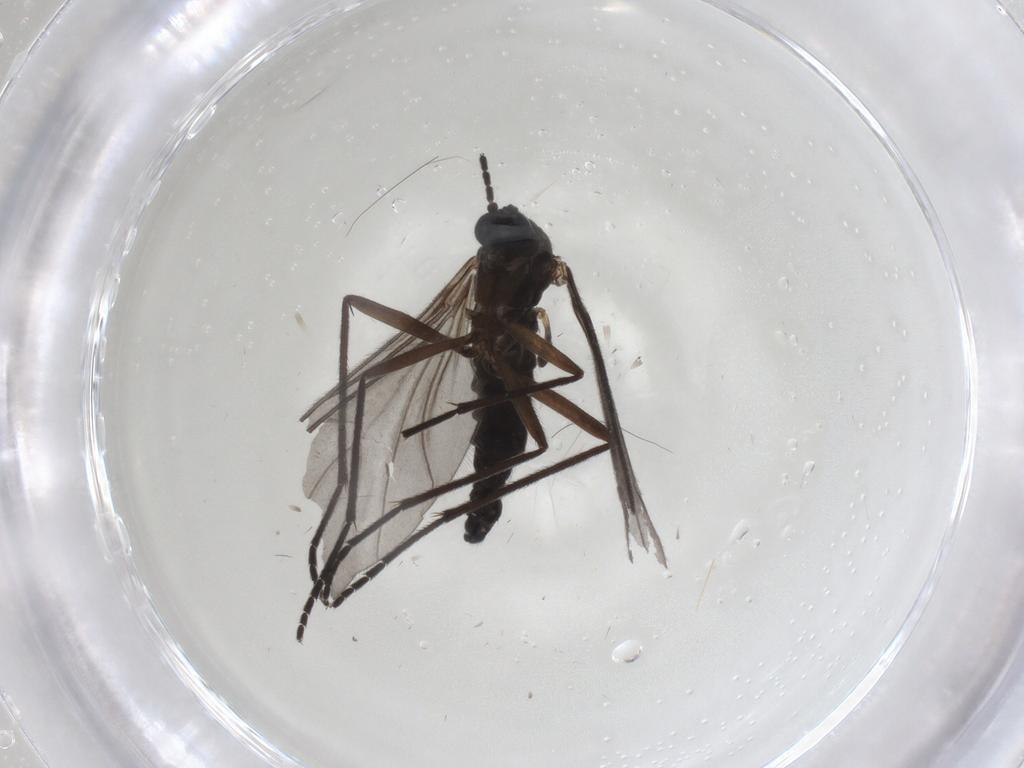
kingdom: Animalia
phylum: Arthropoda
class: Insecta
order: Diptera
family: Sciaridae
